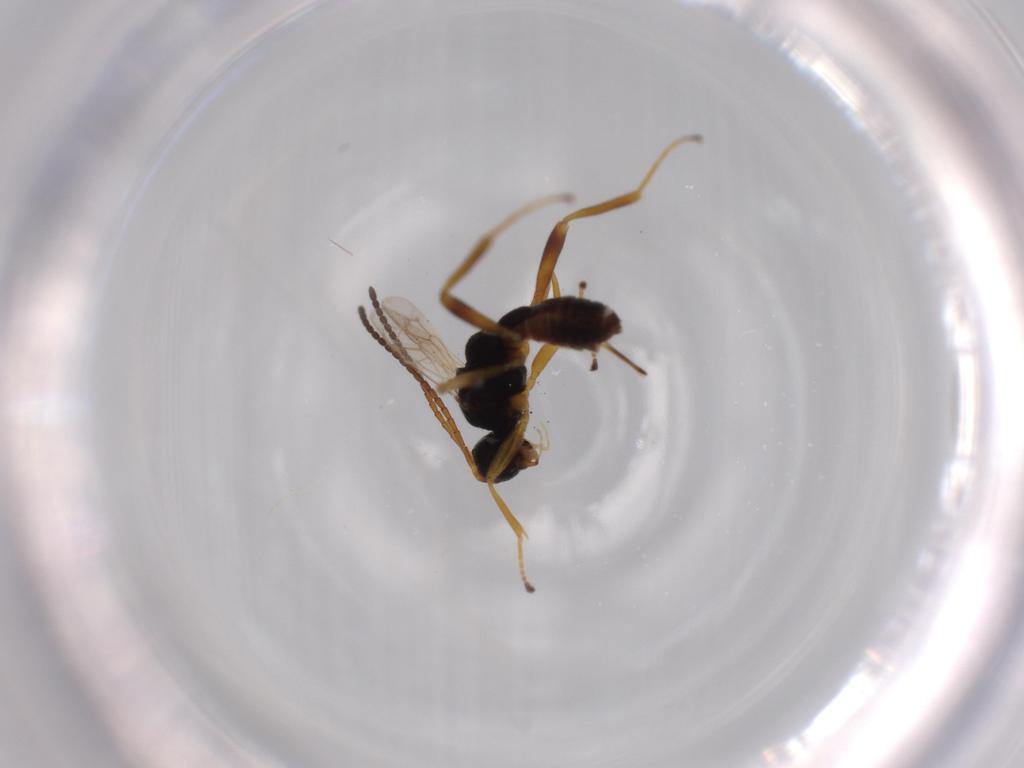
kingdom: Animalia
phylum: Arthropoda
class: Insecta
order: Hymenoptera
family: Braconidae
